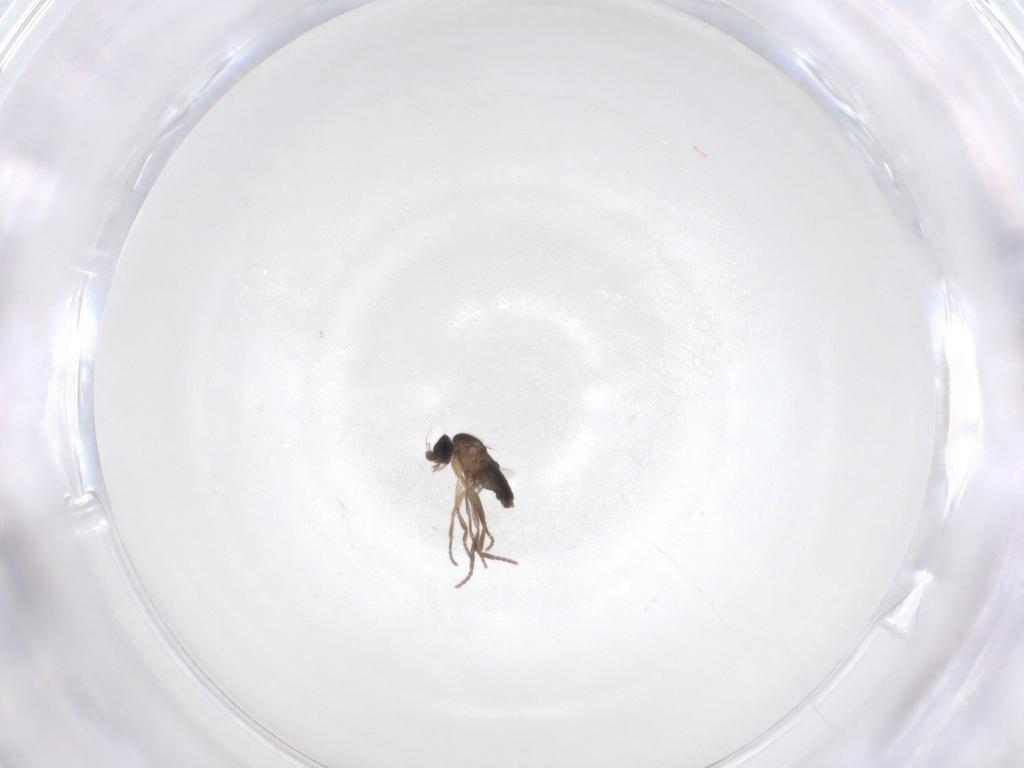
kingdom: Animalia
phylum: Arthropoda
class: Insecta
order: Diptera
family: Phoridae
